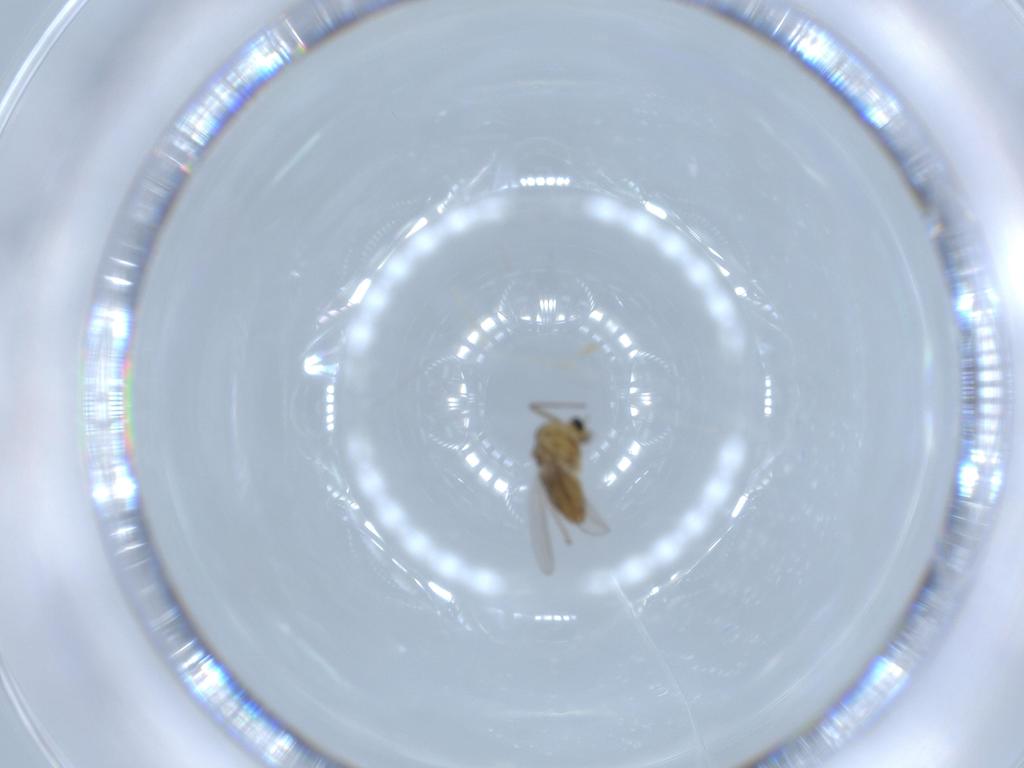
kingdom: Animalia
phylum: Arthropoda
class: Insecta
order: Diptera
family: Chironomidae
